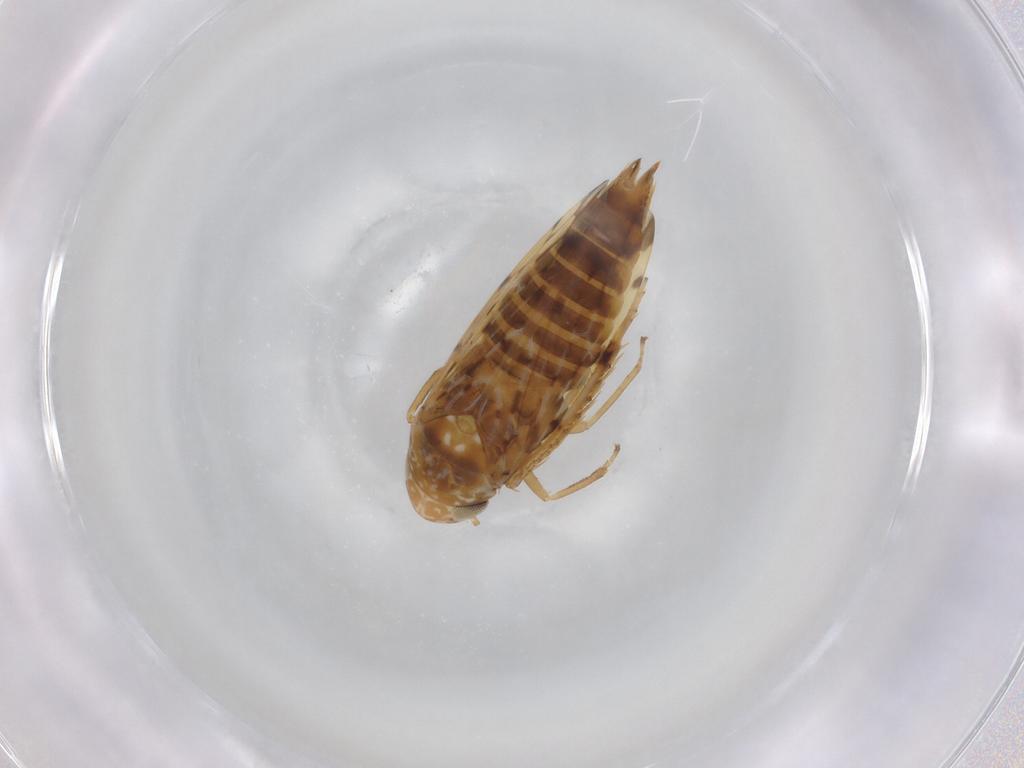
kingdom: Animalia
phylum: Arthropoda
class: Insecta
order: Hemiptera
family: Cicadellidae
